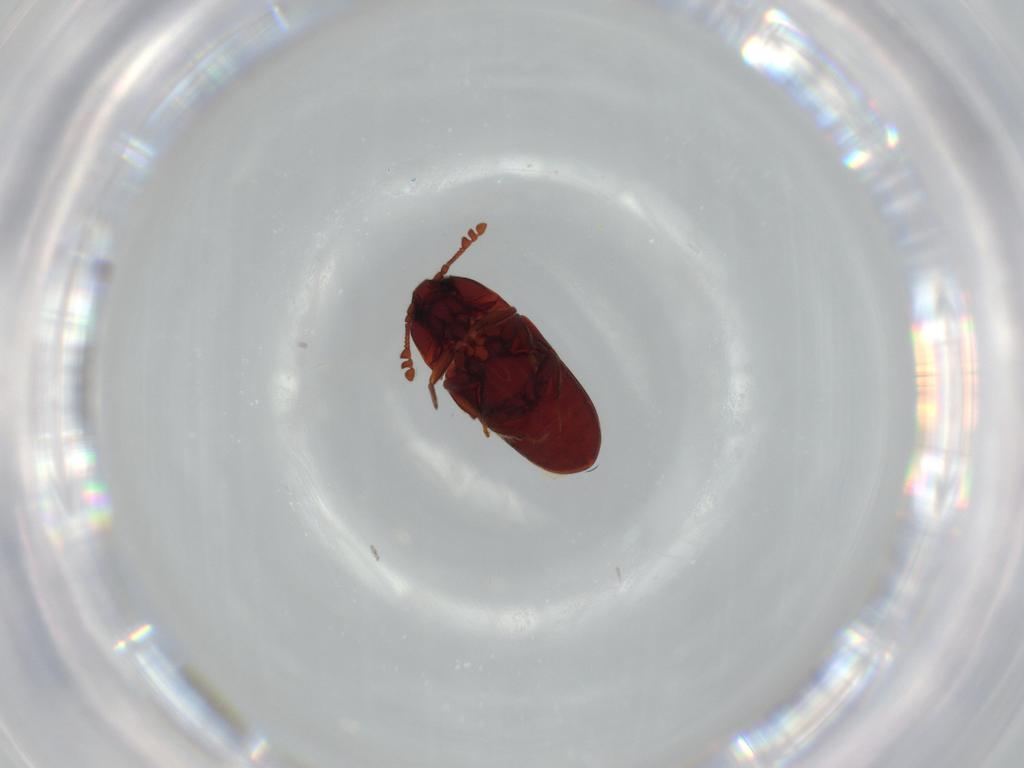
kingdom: Animalia
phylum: Arthropoda
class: Insecta
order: Coleoptera
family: Throscidae
